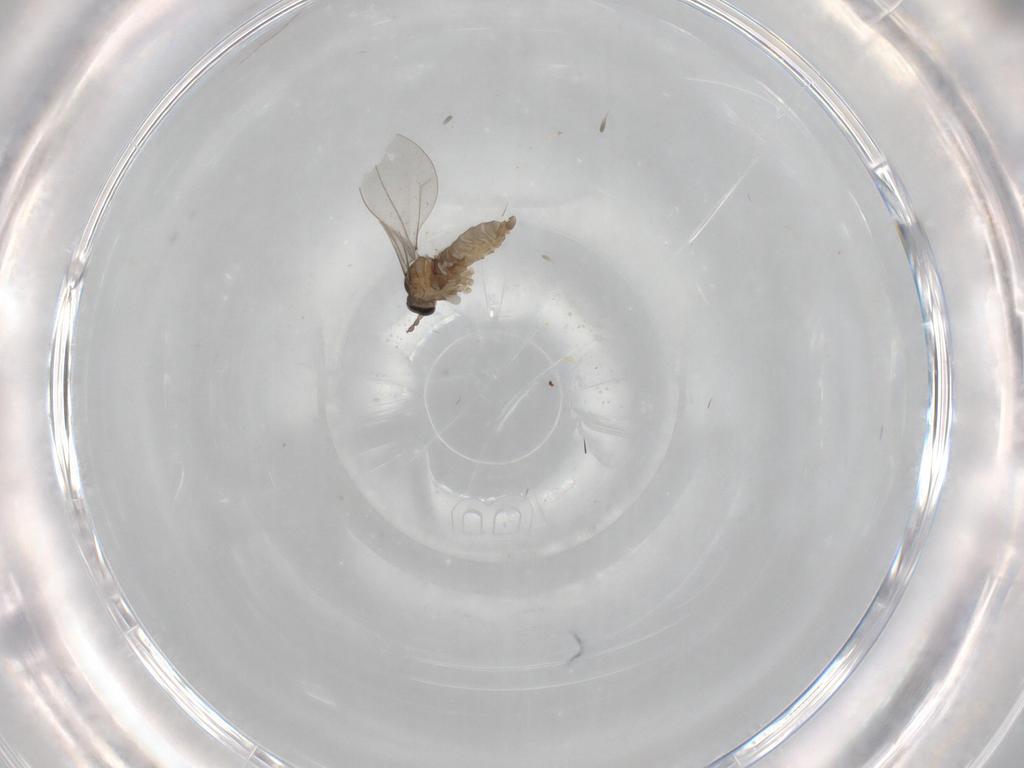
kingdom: Animalia
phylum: Arthropoda
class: Insecta
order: Diptera
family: Cecidomyiidae
